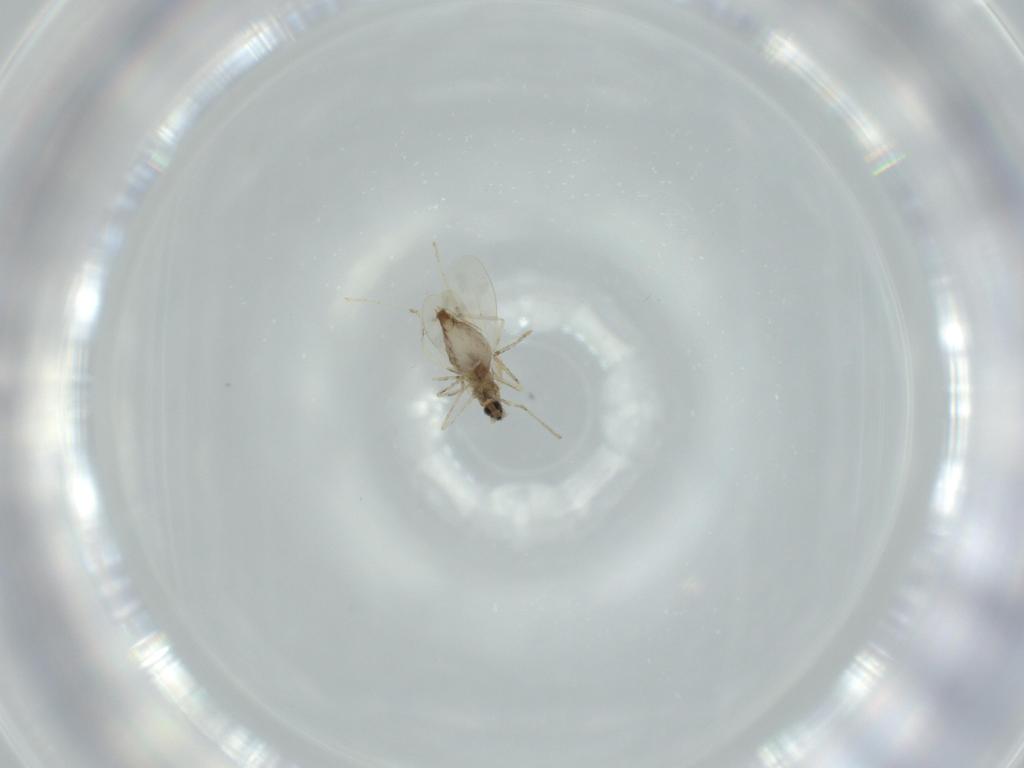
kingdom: Animalia
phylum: Arthropoda
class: Insecta
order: Diptera
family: Cecidomyiidae
